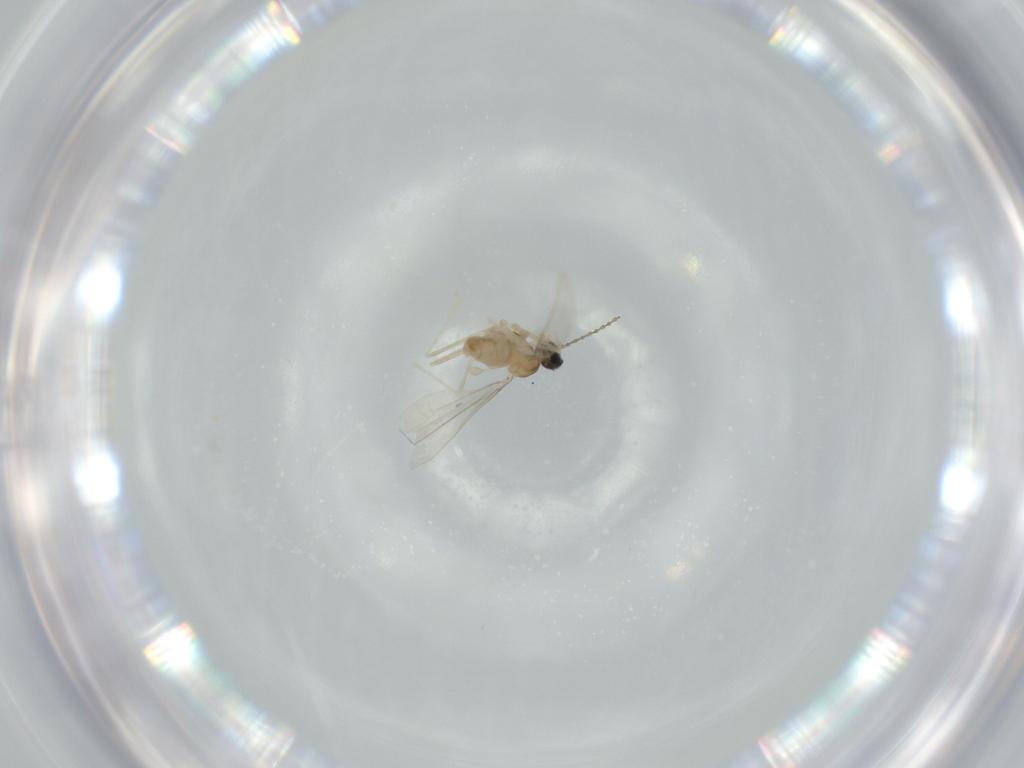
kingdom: Animalia
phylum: Arthropoda
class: Insecta
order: Diptera
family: Cecidomyiidae
